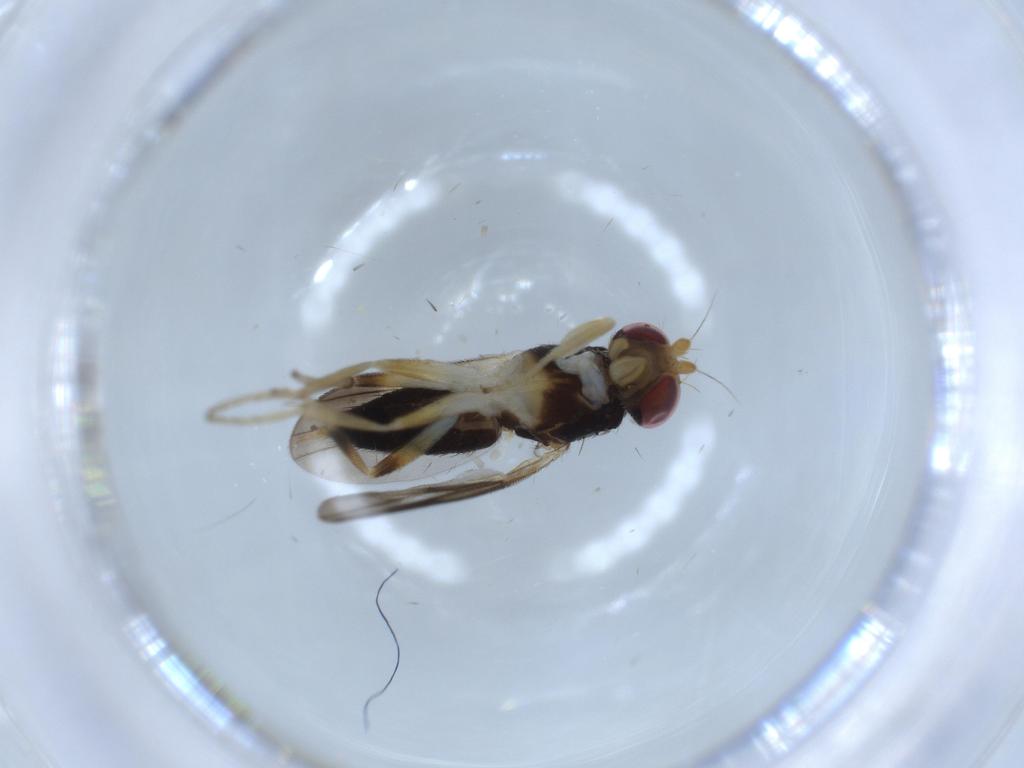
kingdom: Animalia
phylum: Arthropoda
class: Insecta
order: Diptera
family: Clusiidae
